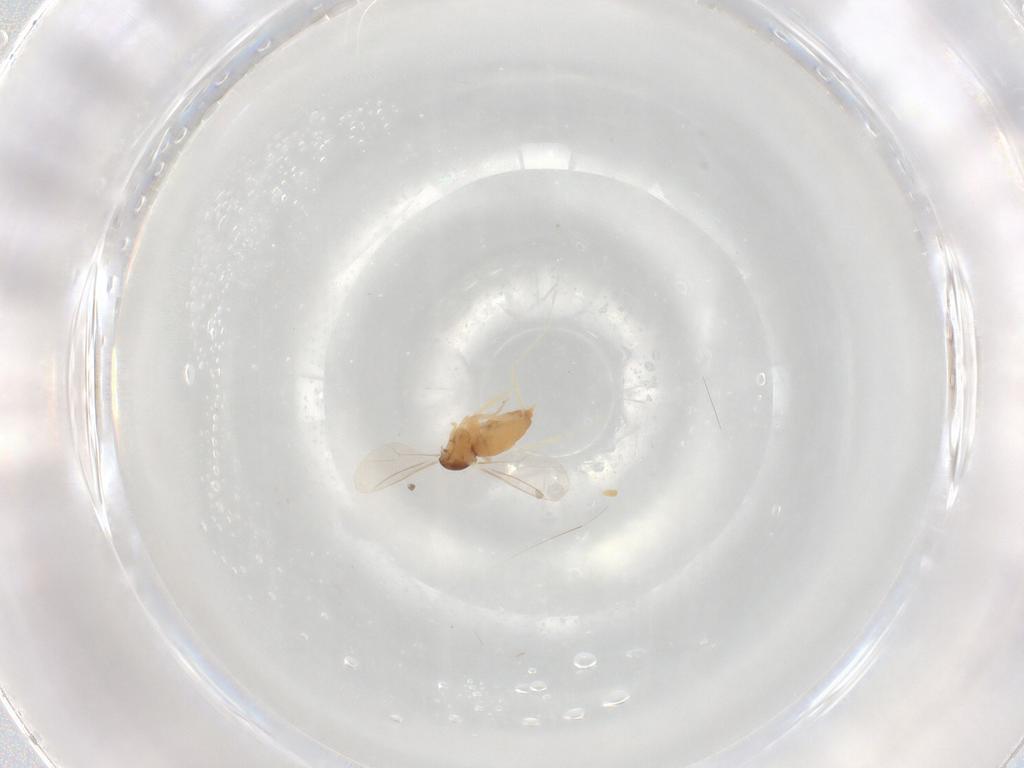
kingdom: Animalia
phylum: Arthropoda
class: Insecta
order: Diptera
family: Cecidomyiidae
